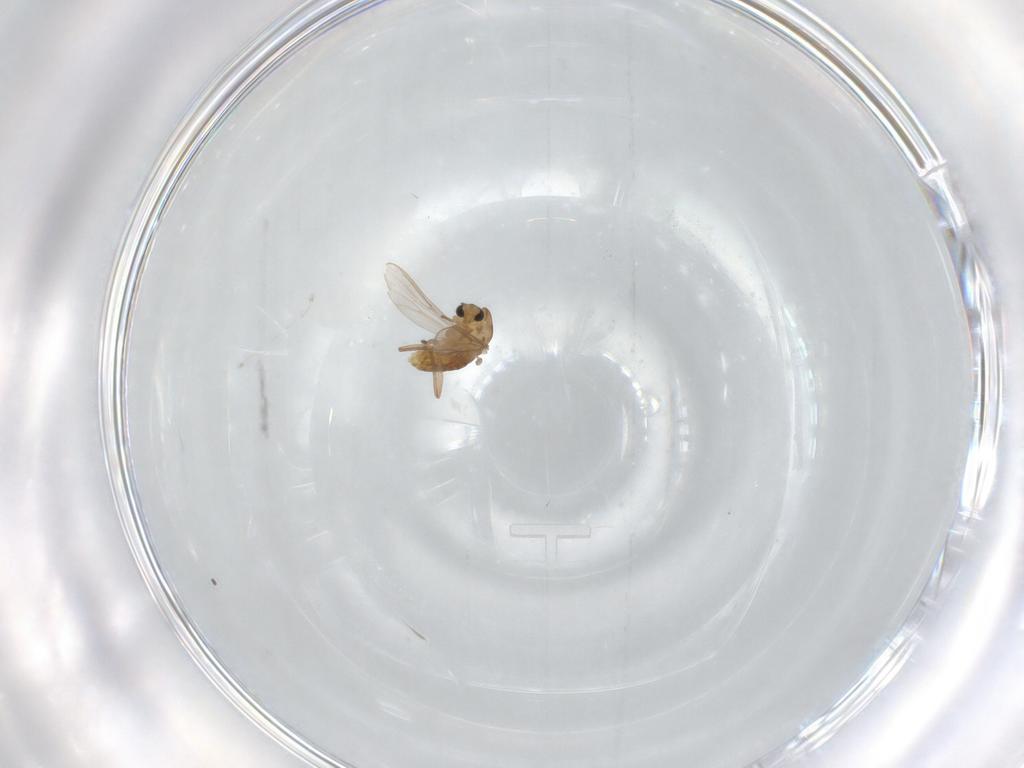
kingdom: Animalia
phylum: Arthropoda
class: Insecta
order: Diptera
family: Chironomidae
